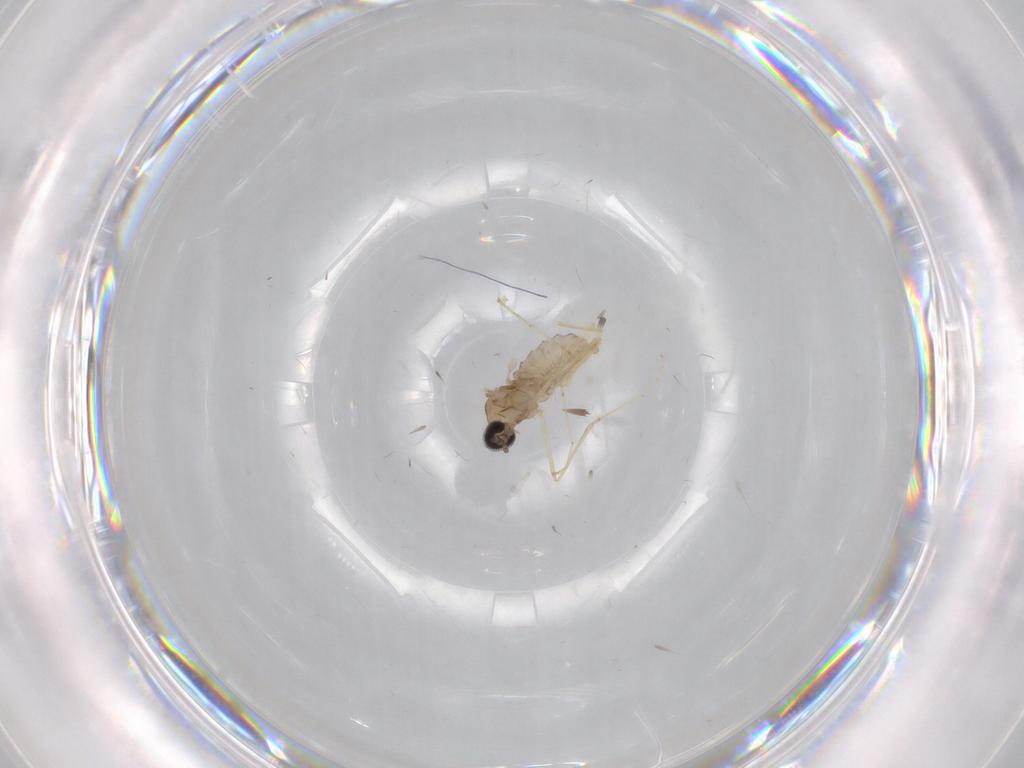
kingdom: Animalia
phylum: Arthropoda
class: Insecta
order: Diptera
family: Cecidomyiidae
